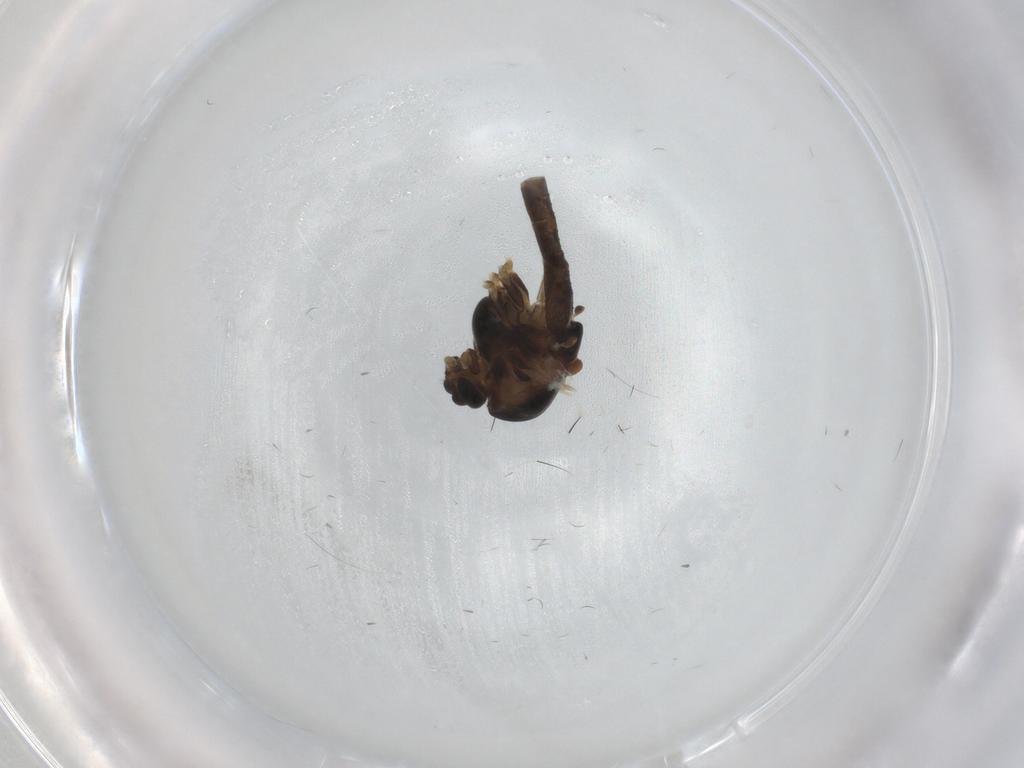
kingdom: Animalia
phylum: Arthropoda
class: Insecta
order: Diptera
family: Chironomidae
